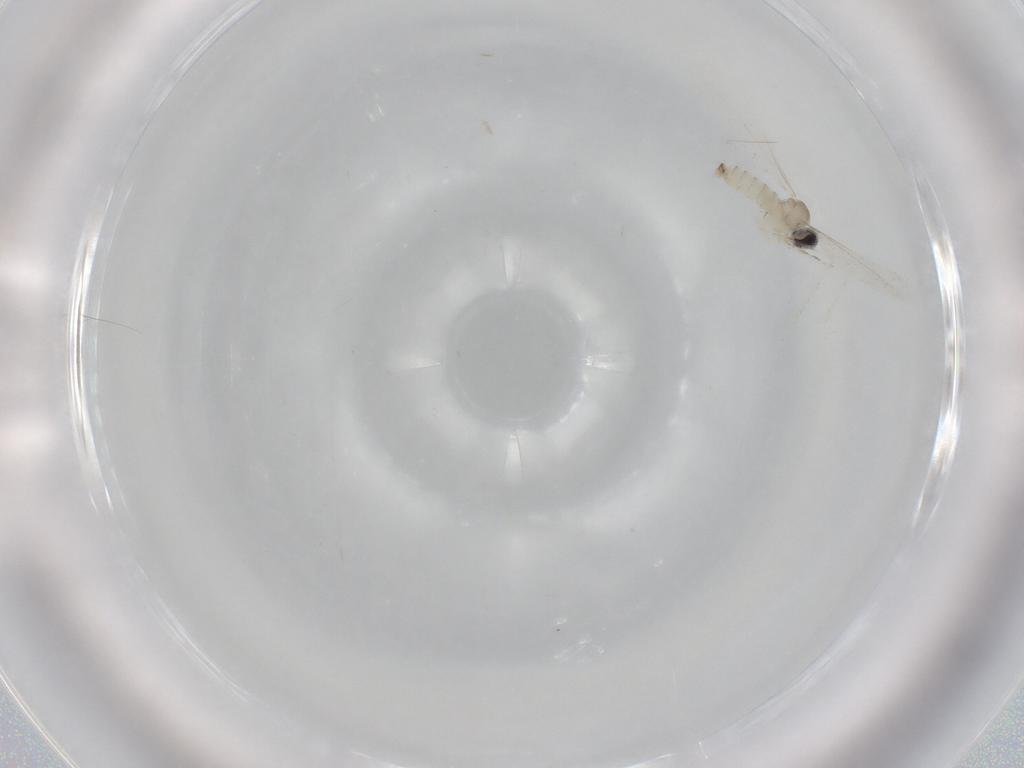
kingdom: Animalia
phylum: Arthropoda
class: Insecta
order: Diptera
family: Cecidomyiidae
